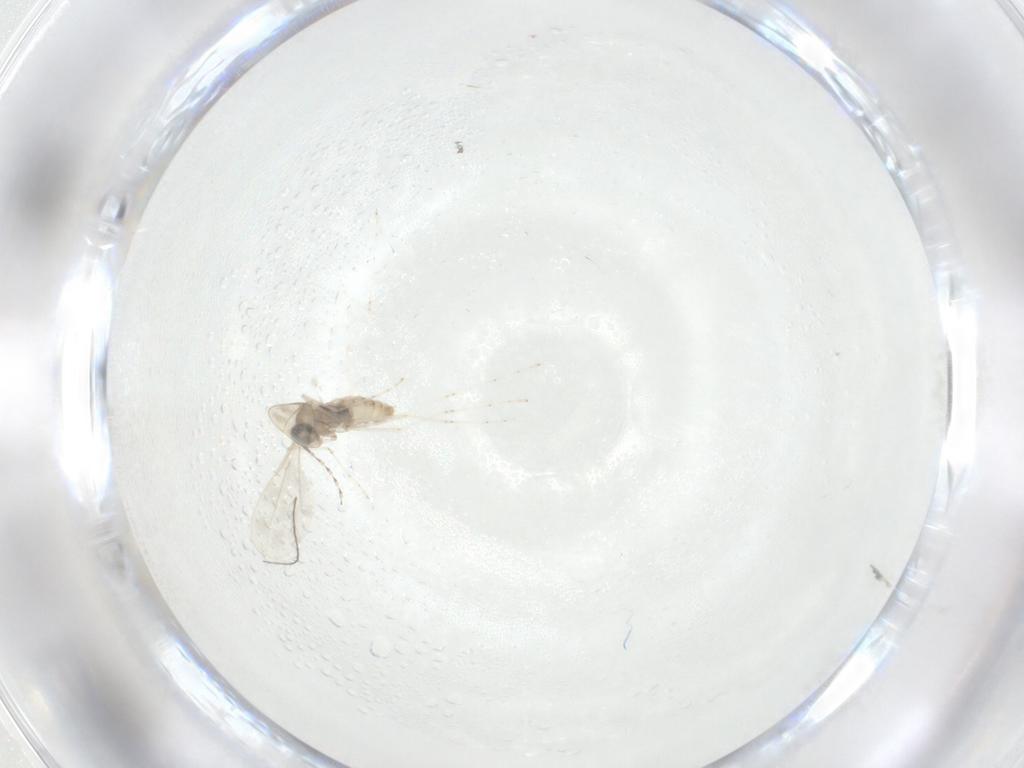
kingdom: Animalia
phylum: Arthropoda
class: Insecta
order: Diptera
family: Cecidomyiidae
